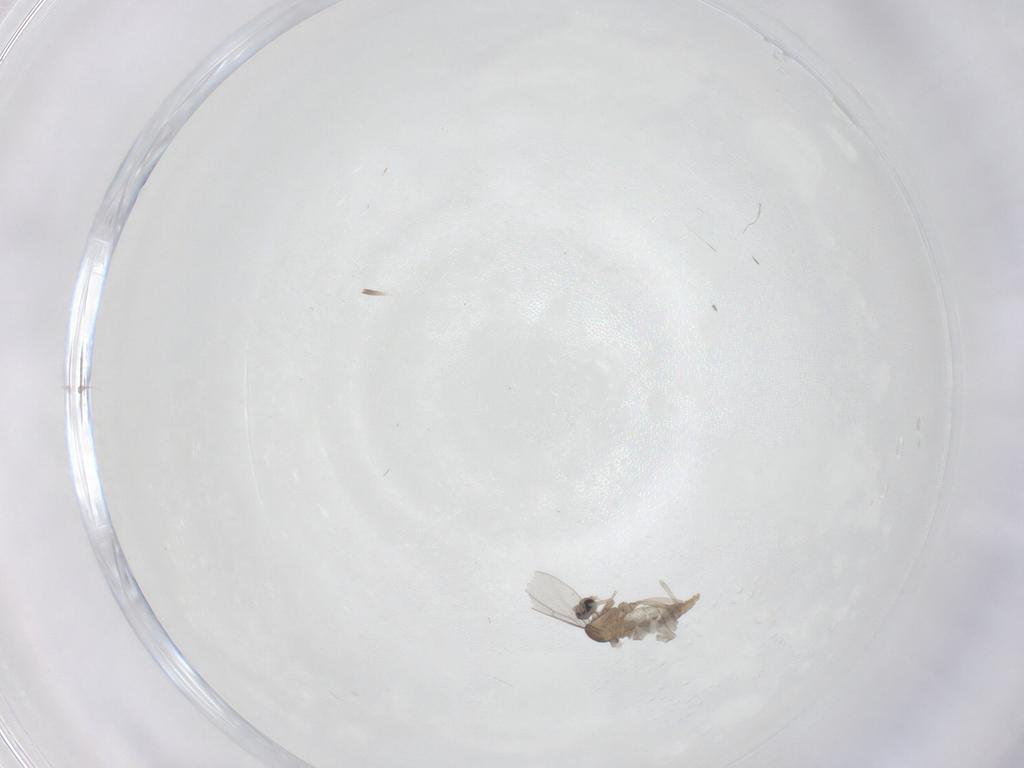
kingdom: Animalia
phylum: Arthropoda
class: Insecta
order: Diptera
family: Cecidomyiidae
